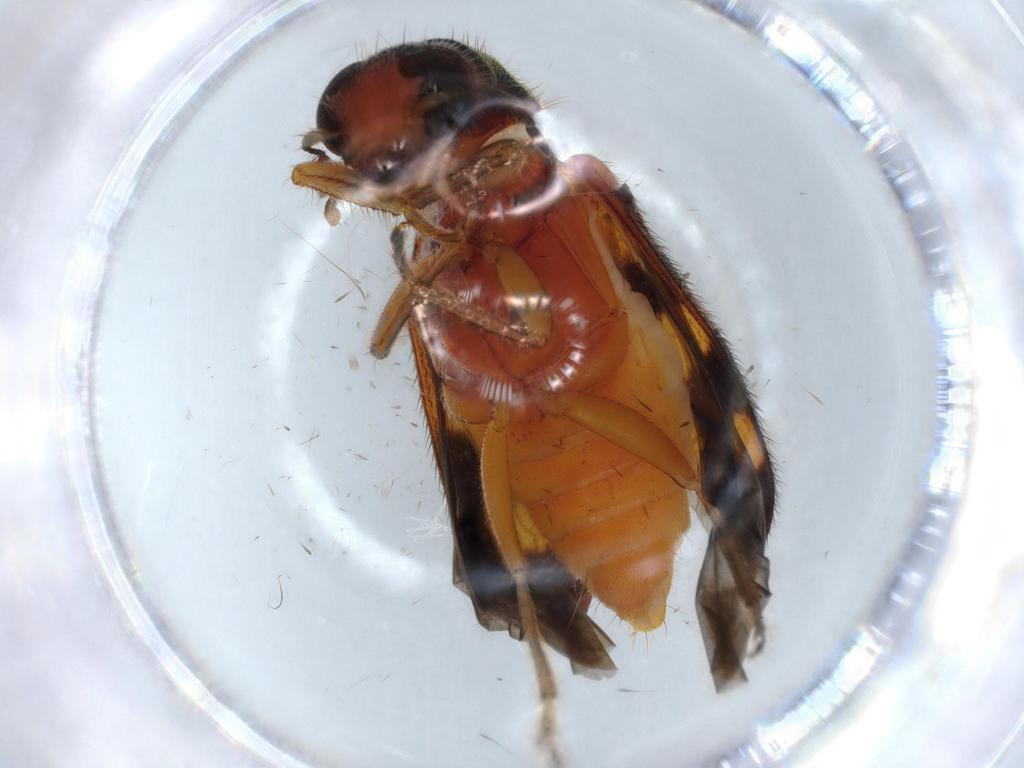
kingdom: Animalia
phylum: Arthropoda
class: Insecta
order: Coleoptera
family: Cleridae
